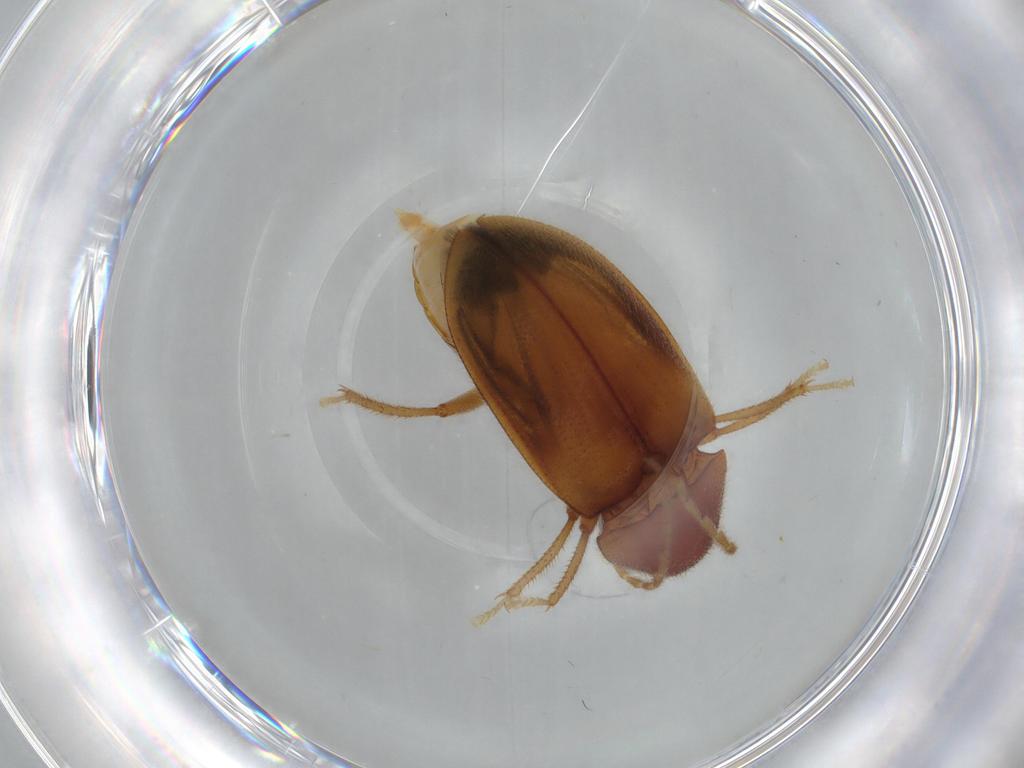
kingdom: Animalia
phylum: Arthropoda
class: Insecta
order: Coleoptera
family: Ptilodactylidae
